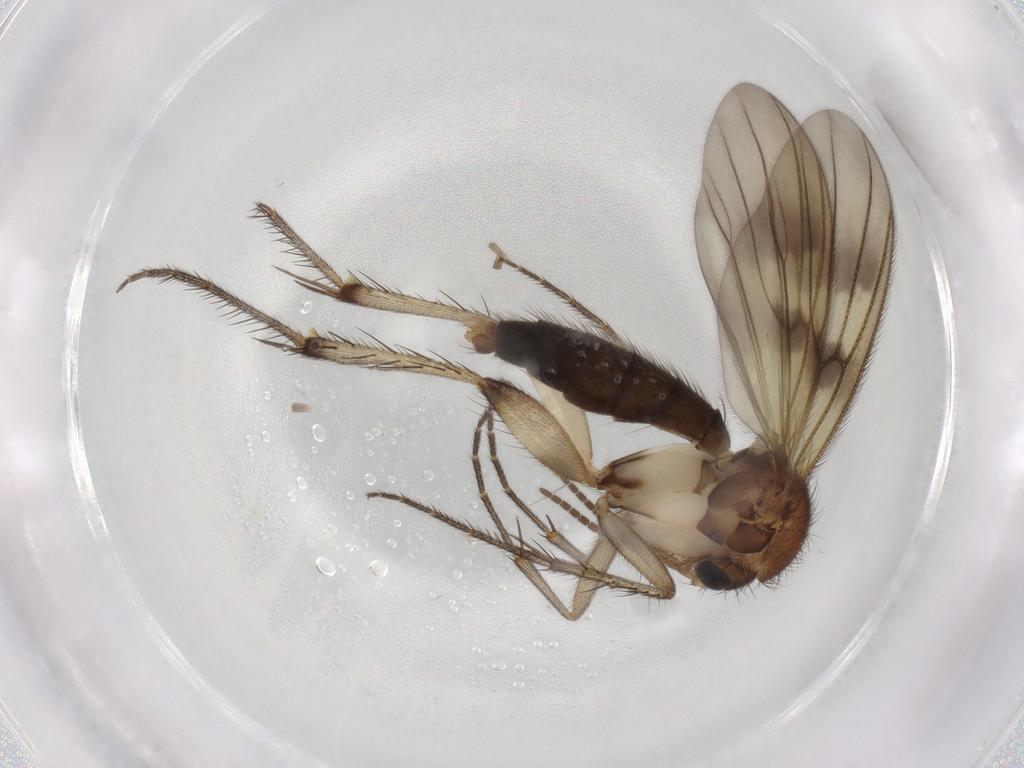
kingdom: Animalia
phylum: Arthropoda
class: Insecta
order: Diptera
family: Mycetophilidae
